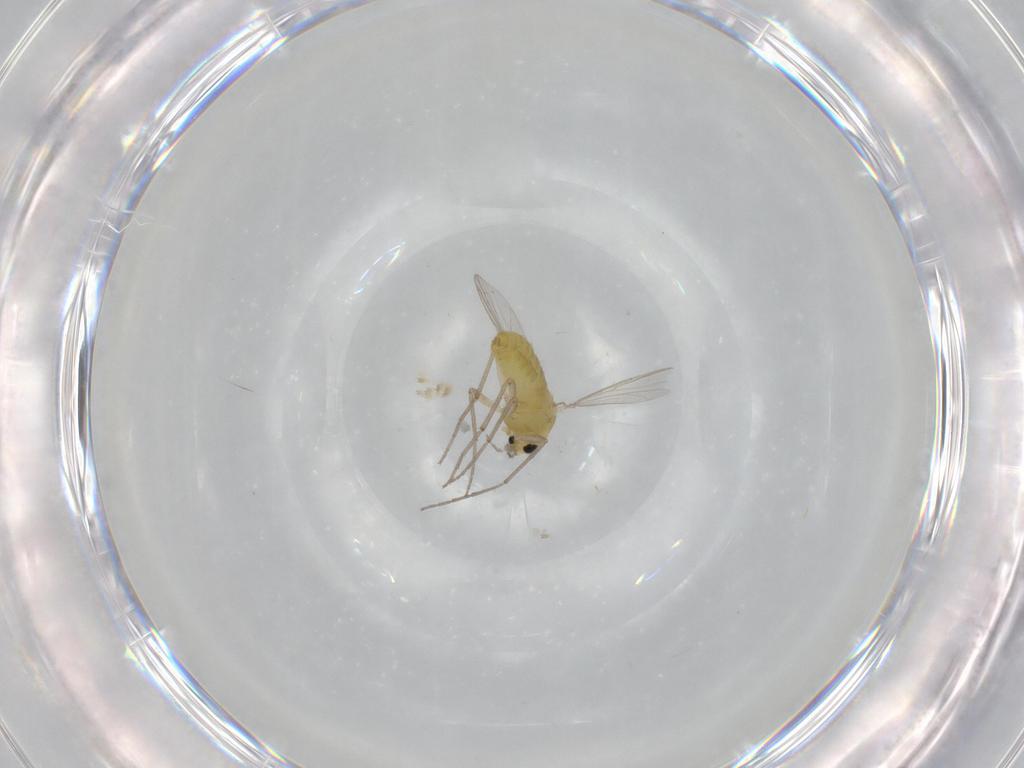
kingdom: Animalia
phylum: Arthropoda
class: Insecta
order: Diptera
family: Chironomidae
